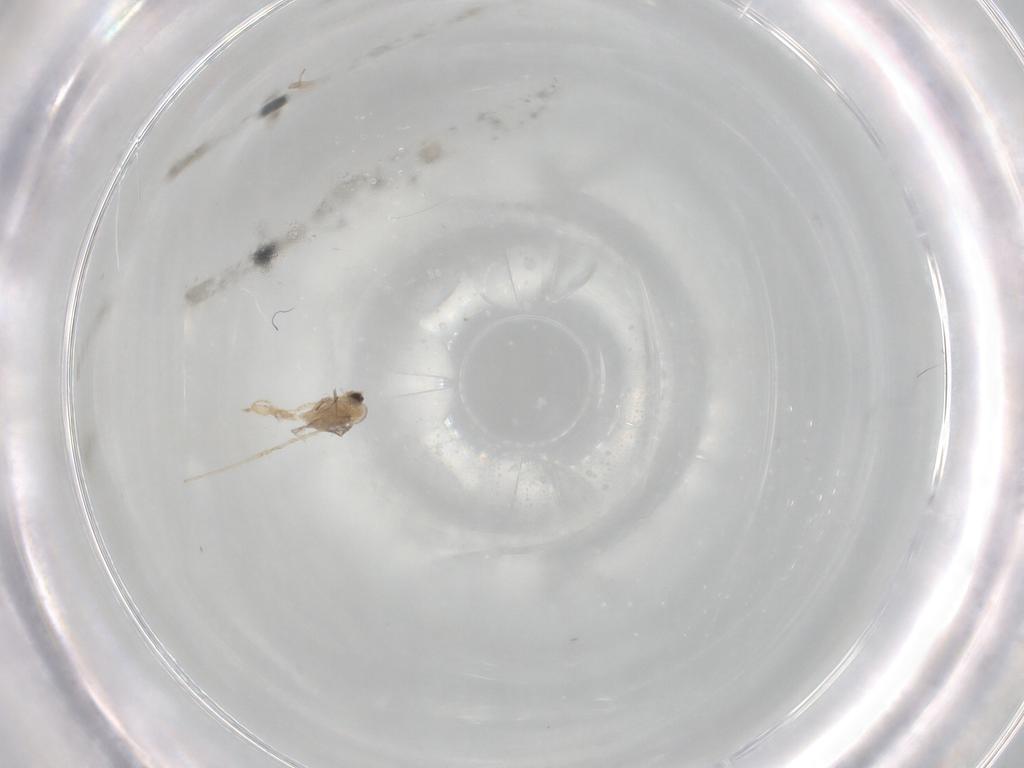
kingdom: Animalia
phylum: Arthropoda
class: Insecta
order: Diptera
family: Cecidomyiidae
